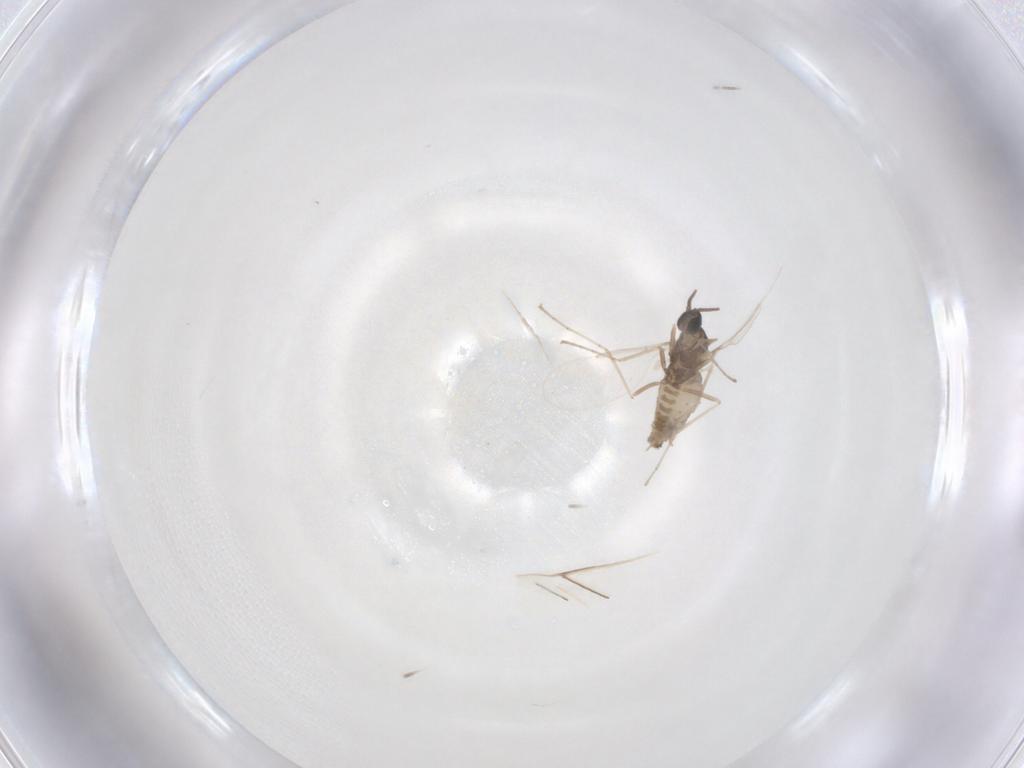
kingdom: Animalia
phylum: Arthropoda
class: Insecta
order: Diptera
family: Cecidomyiidae
